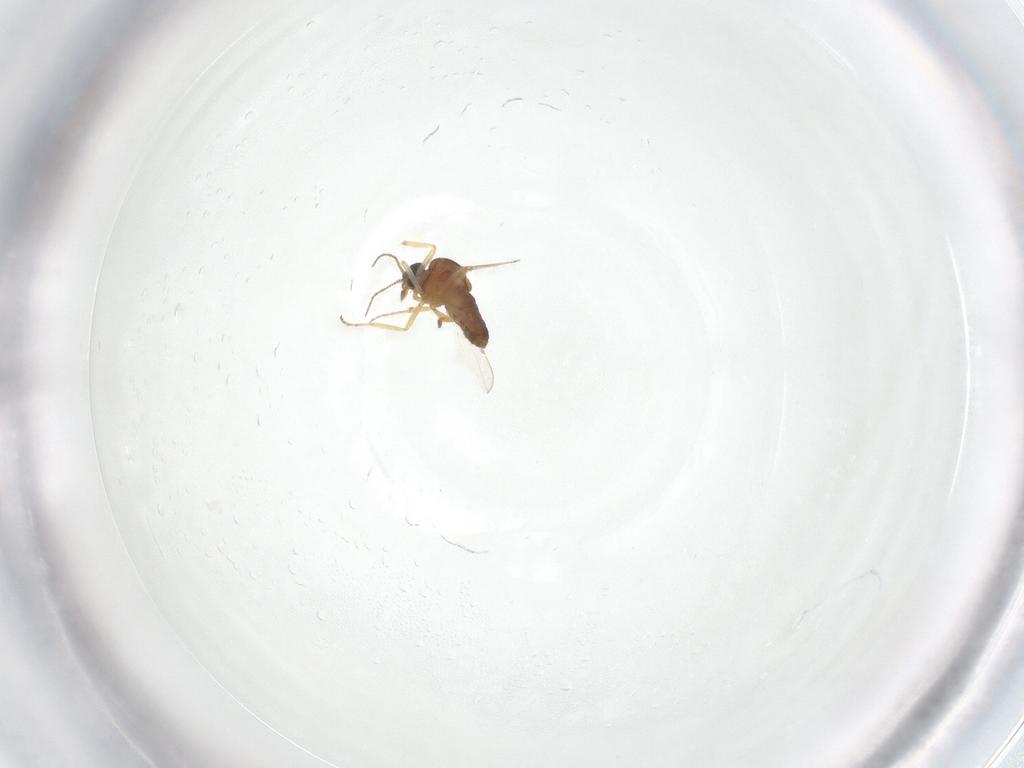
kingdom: Animalia
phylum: Arthropoda
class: Insecta
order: Diptera
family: Ceratopogonidae
